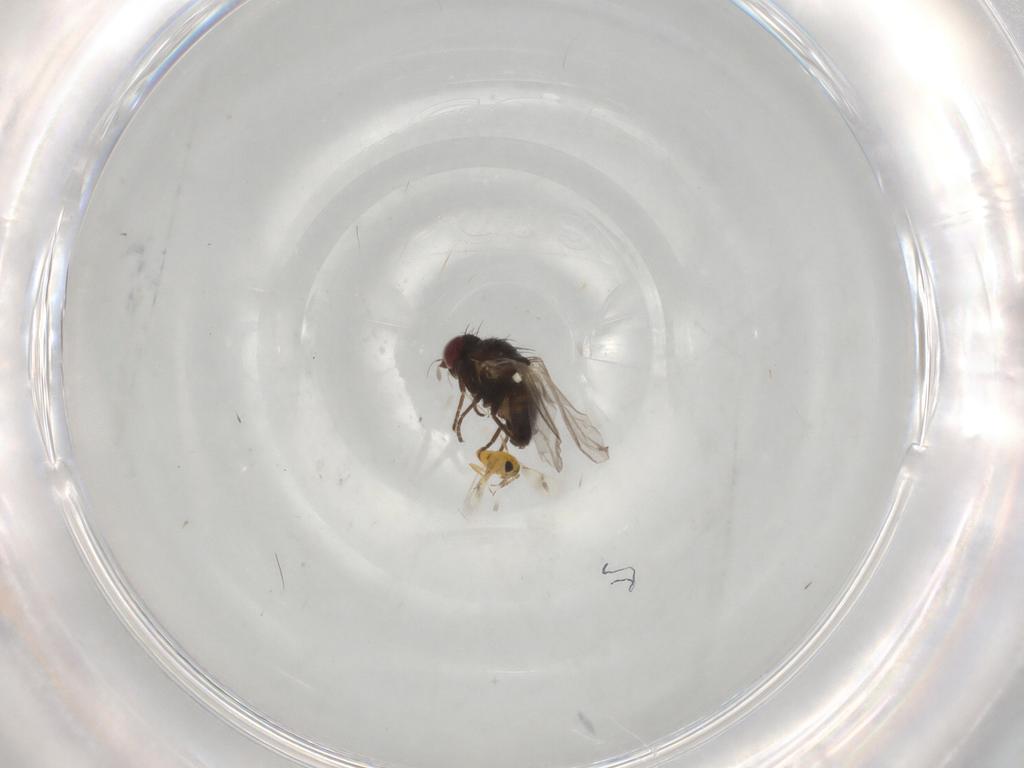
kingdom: Animalia
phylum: Arthropoda
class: Insecta
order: Diptera
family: Agromyzidae
